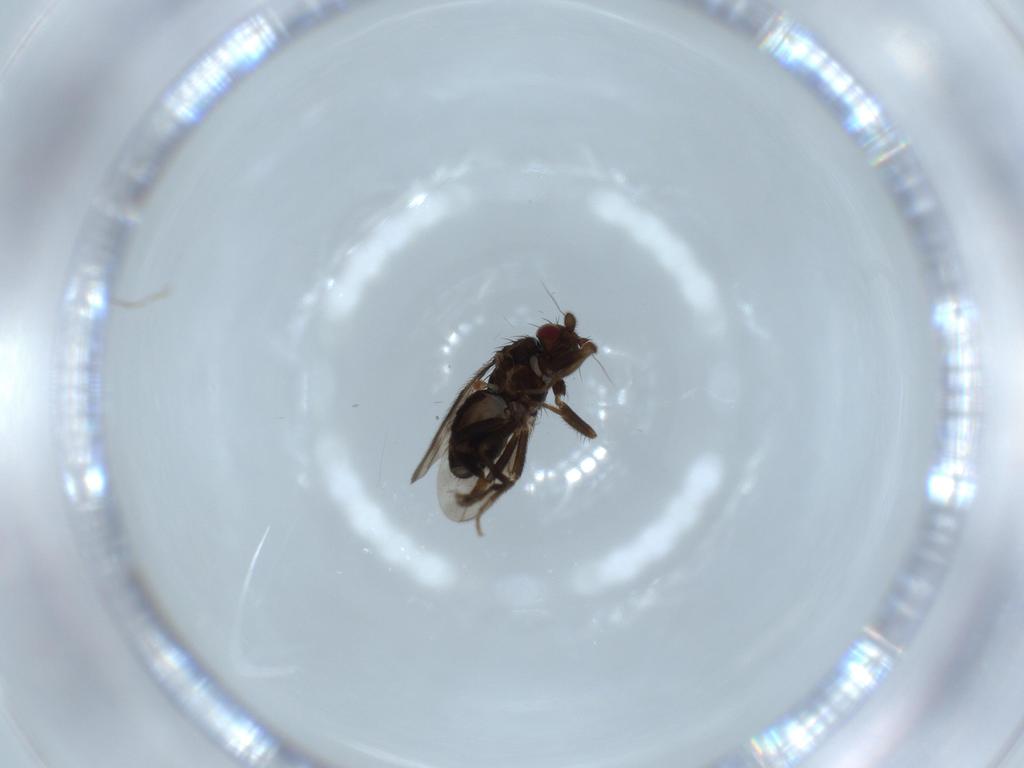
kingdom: Animalia
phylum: Arthropoda
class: Insecta
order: Diptera
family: Sphaeroceridae
